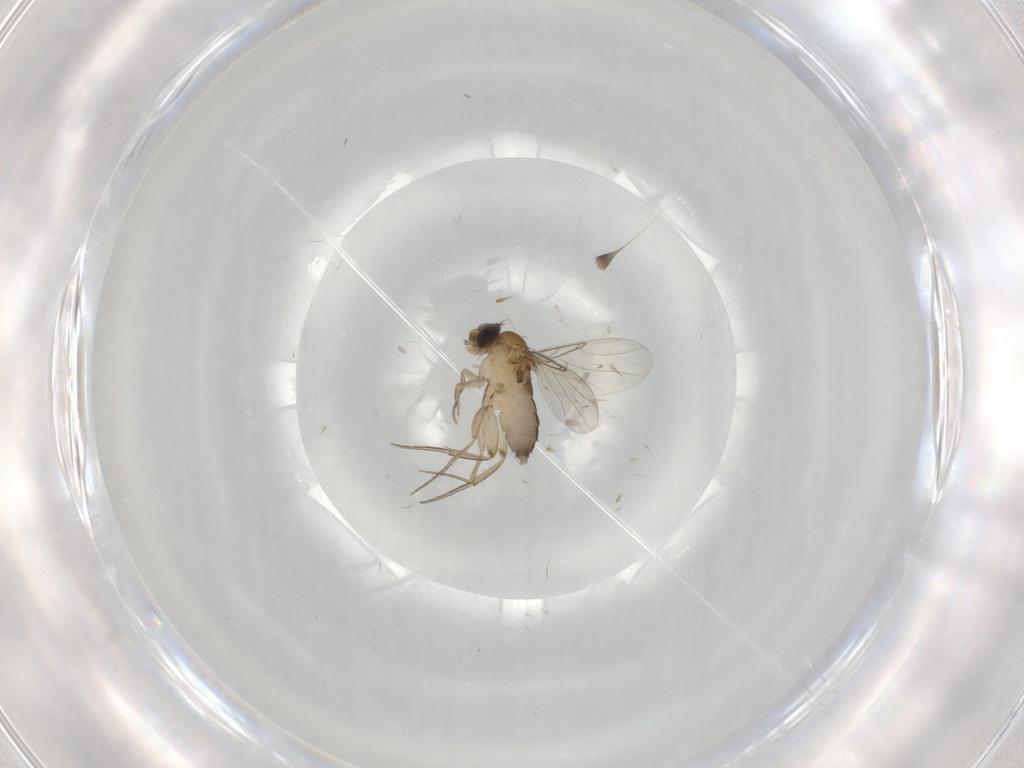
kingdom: Animalia
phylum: Arthropoda
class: Insecta
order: Diptera
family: Phoridae
